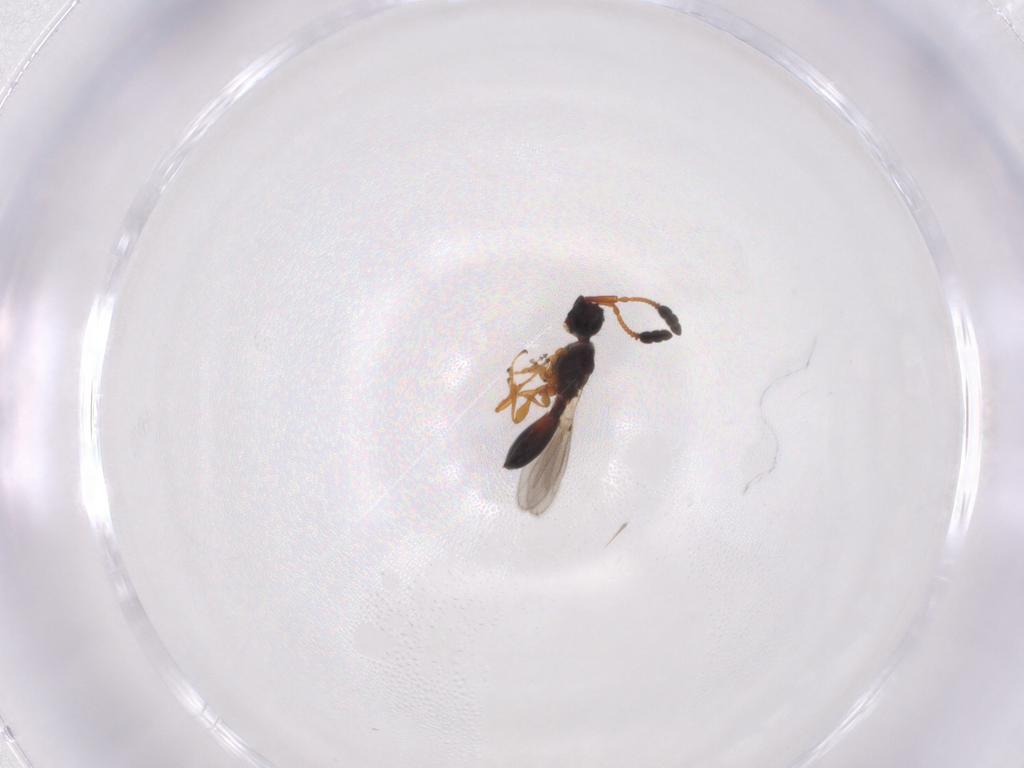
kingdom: Animalia
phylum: Arthropoda
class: Insecta
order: Hymenoptera
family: Diapriidae
